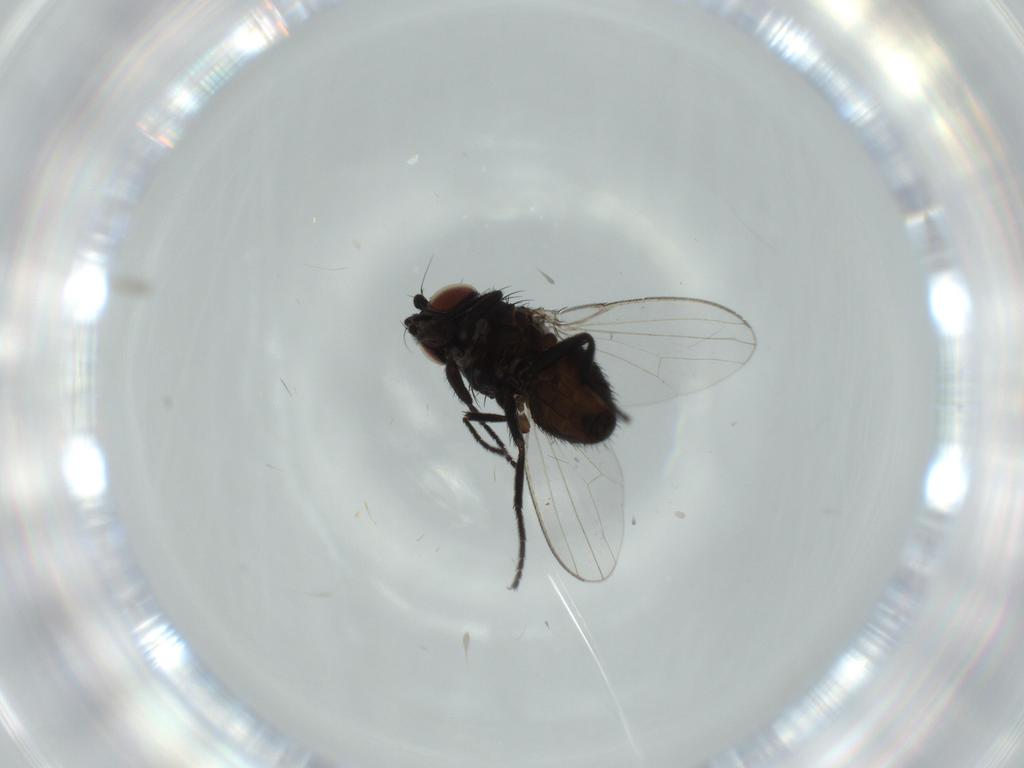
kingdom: Animalia
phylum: Arthropoda
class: Insecta
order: Diptera
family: Milichiidae
